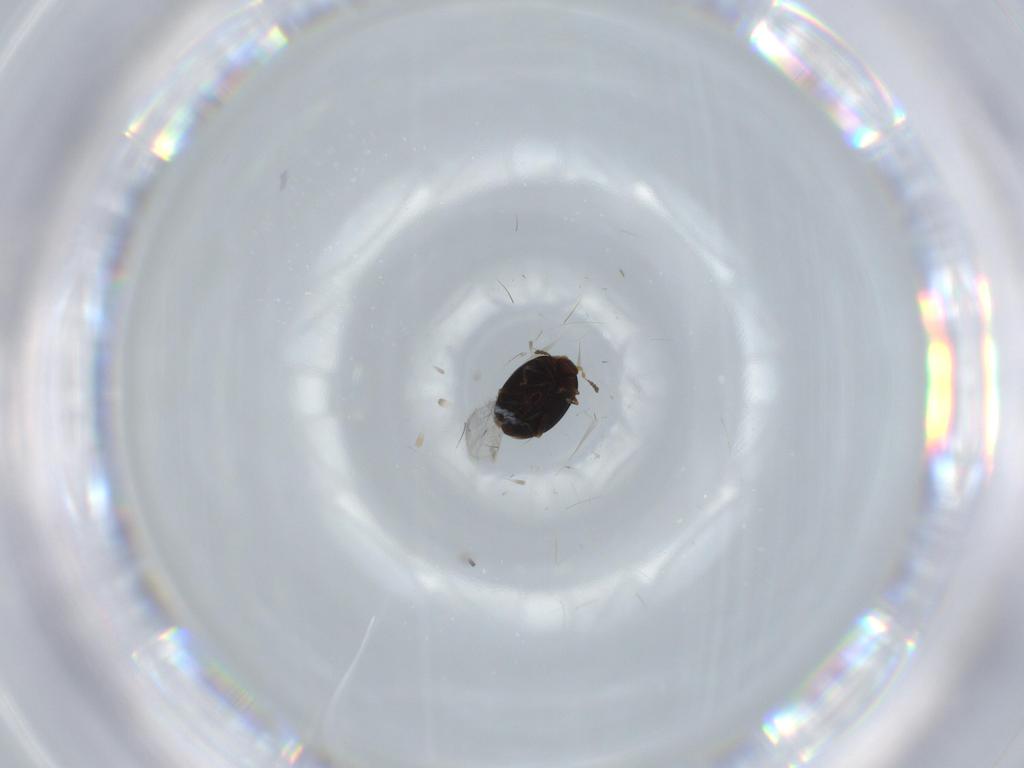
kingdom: Animalia
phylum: Arthropoda
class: Insecta
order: Coleoptera
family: Corylophidae
